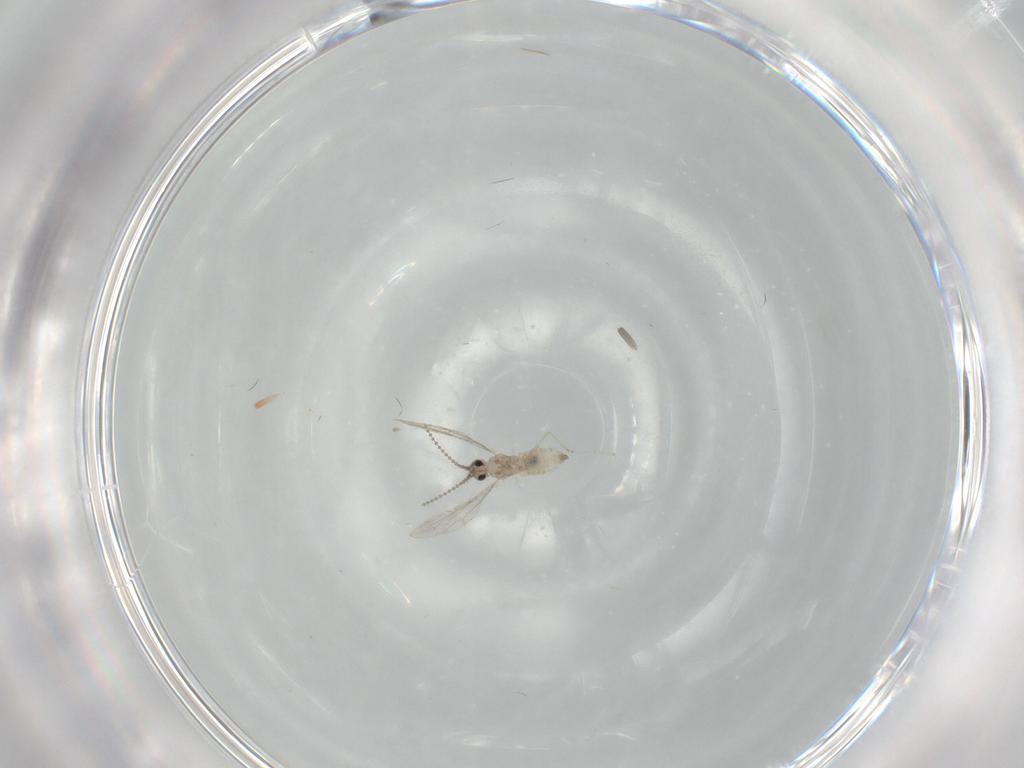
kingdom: Animalia
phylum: Arthropoda
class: Insecta
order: Diptera
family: Cecidomyiidae
